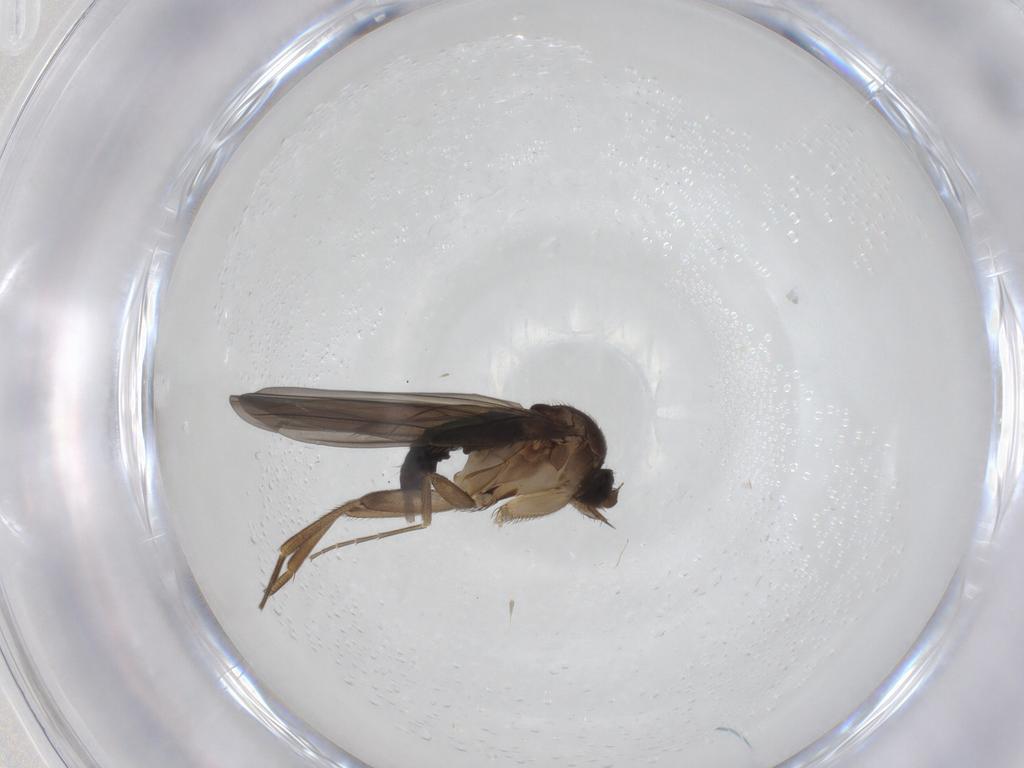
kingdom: Animalia
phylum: Arthropoda
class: Insecta
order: Diptera
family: Phoridae
